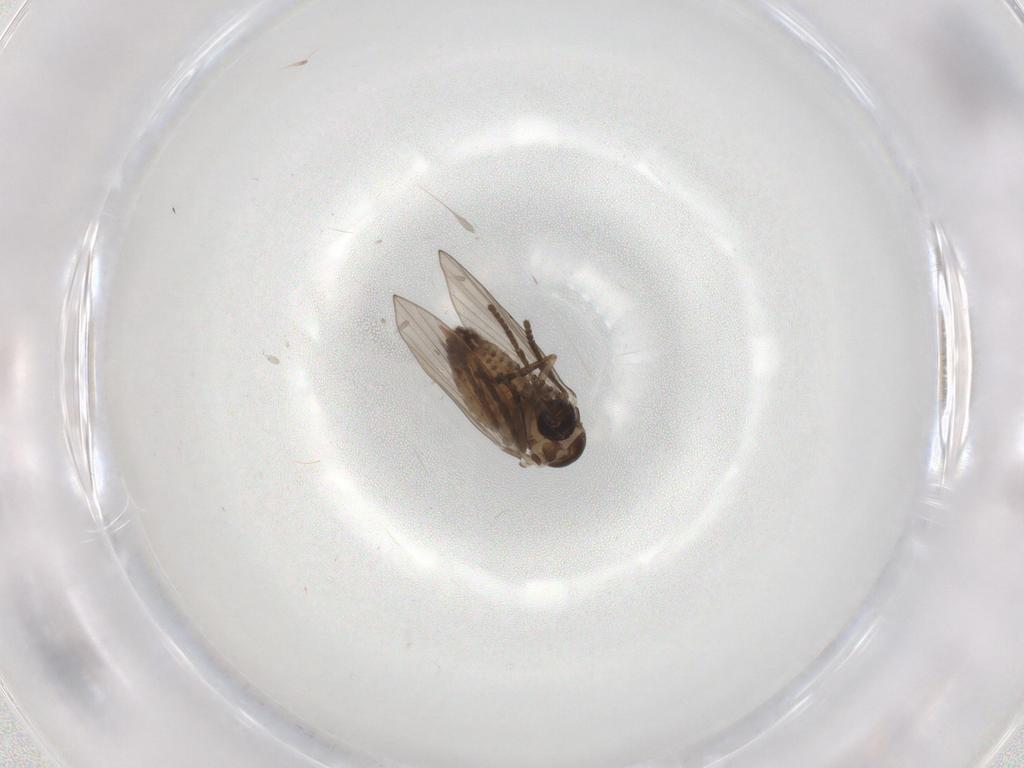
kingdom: Animalia
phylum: Arthropoda
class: Insecta
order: Diptera
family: Psychodidae
